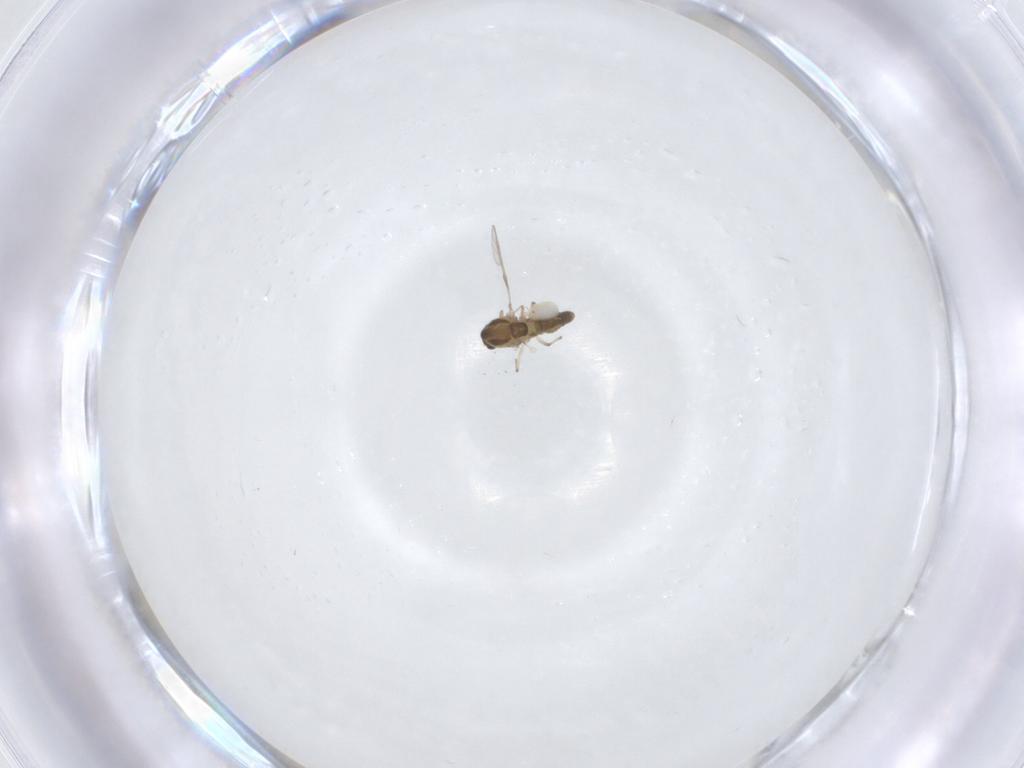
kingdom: Animalia
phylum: Arthropoda
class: Insecta
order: Diptera
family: Chironomidae
